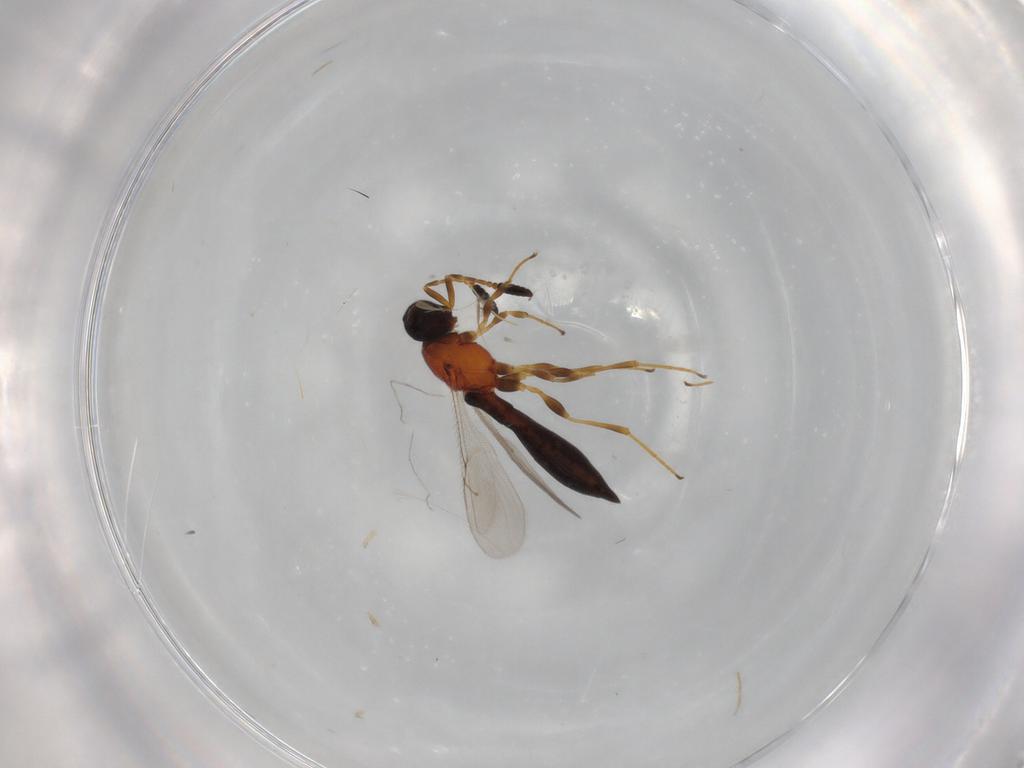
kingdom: Animalia
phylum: Arthropoda
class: Insecta
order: Hymenoptera
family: Scelionidae
